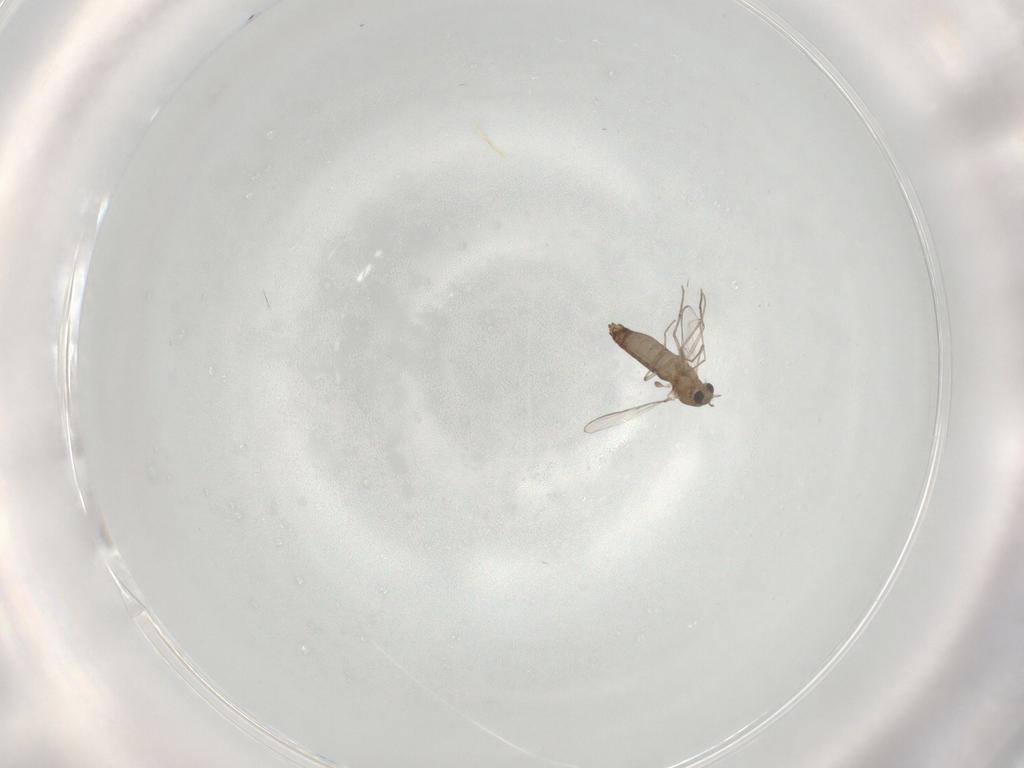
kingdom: Animalia
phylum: Arthropoda
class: Insecta
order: Diptera
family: Chironomidae
